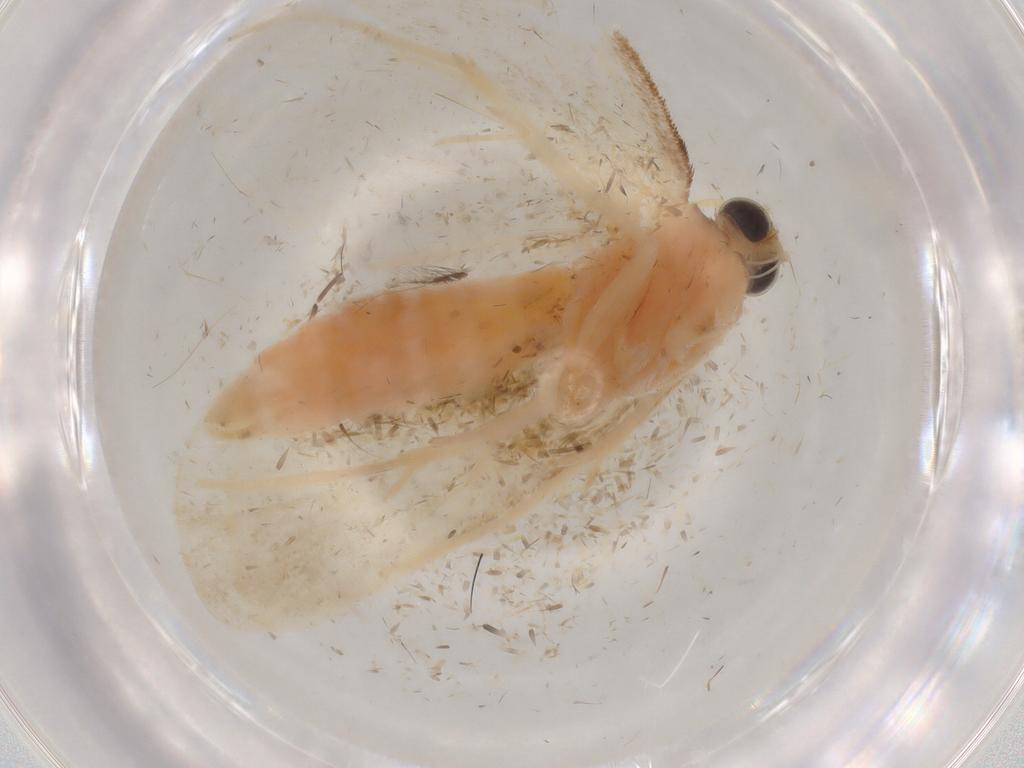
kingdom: Animalia
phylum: Arthropoda
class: Insecta
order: Lepidoptera
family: Crambidae
